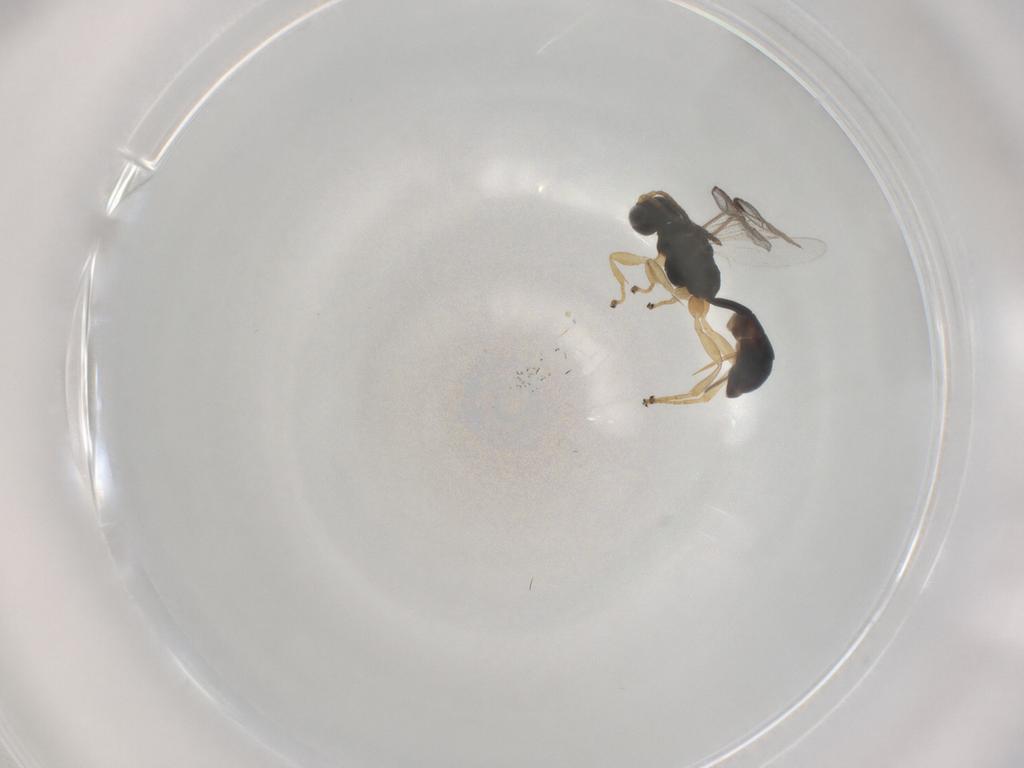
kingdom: Animalia
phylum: Arthropoda
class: Insecta
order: Hymenoptera
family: Ichneumonidae
